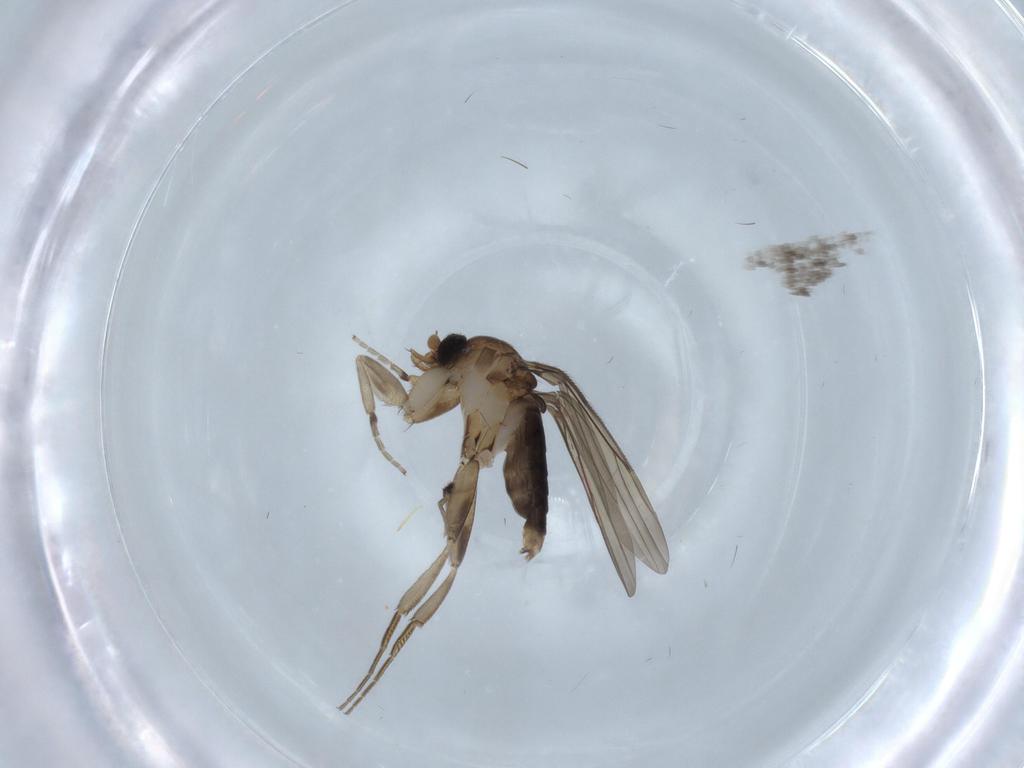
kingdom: Animalia
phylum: Arthropoda
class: Insecta
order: Diptera
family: Phoridae
